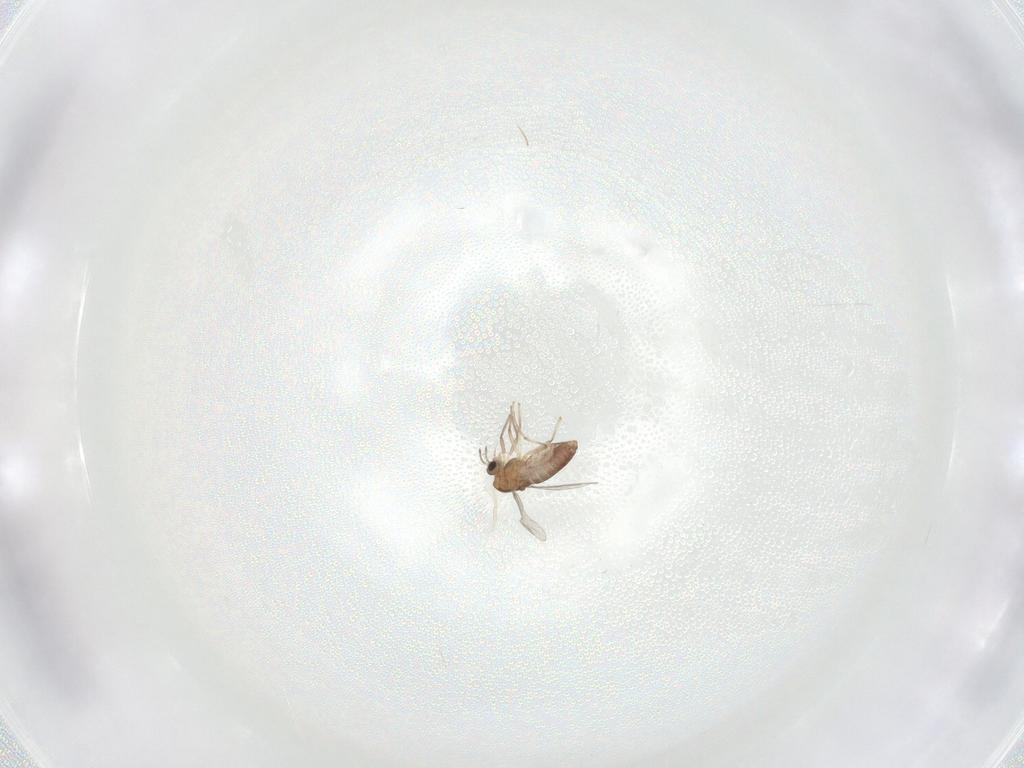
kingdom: Animalia
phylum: Arthropoda
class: Insecta
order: Diptera
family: Chironomidae
